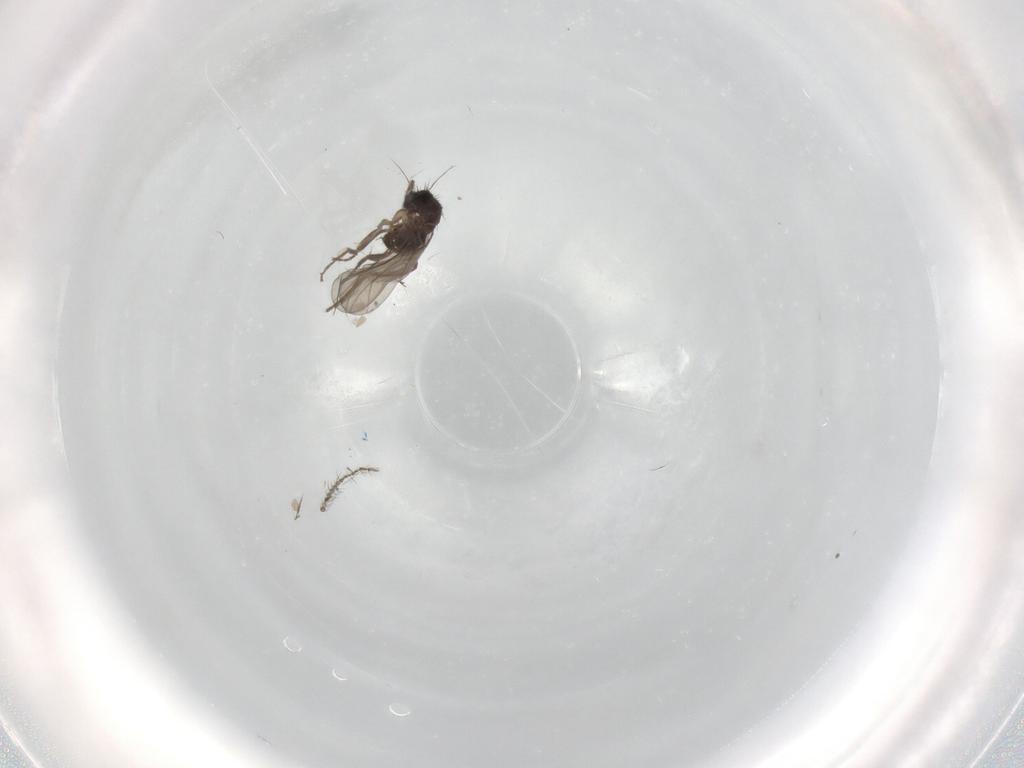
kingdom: Animalia
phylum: Arthropoda
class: Insecta
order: Diptera
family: Phoridae
